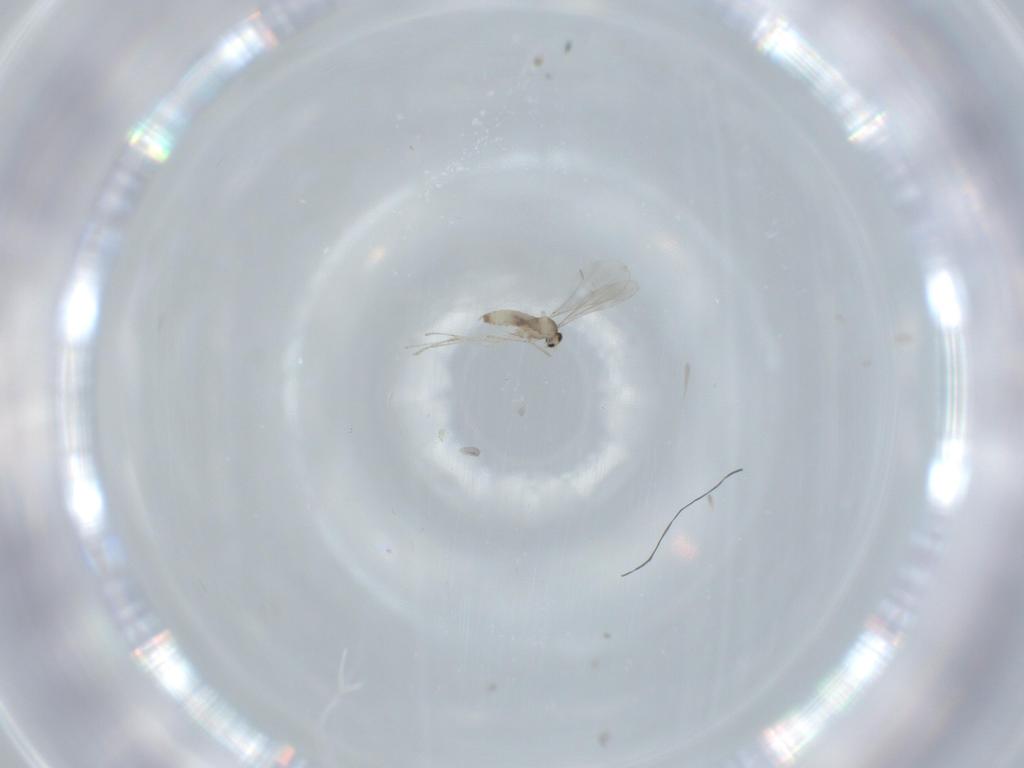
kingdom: Animalia
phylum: Arthropoda
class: Insecta
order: Diptera
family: Cecidomyiidae
